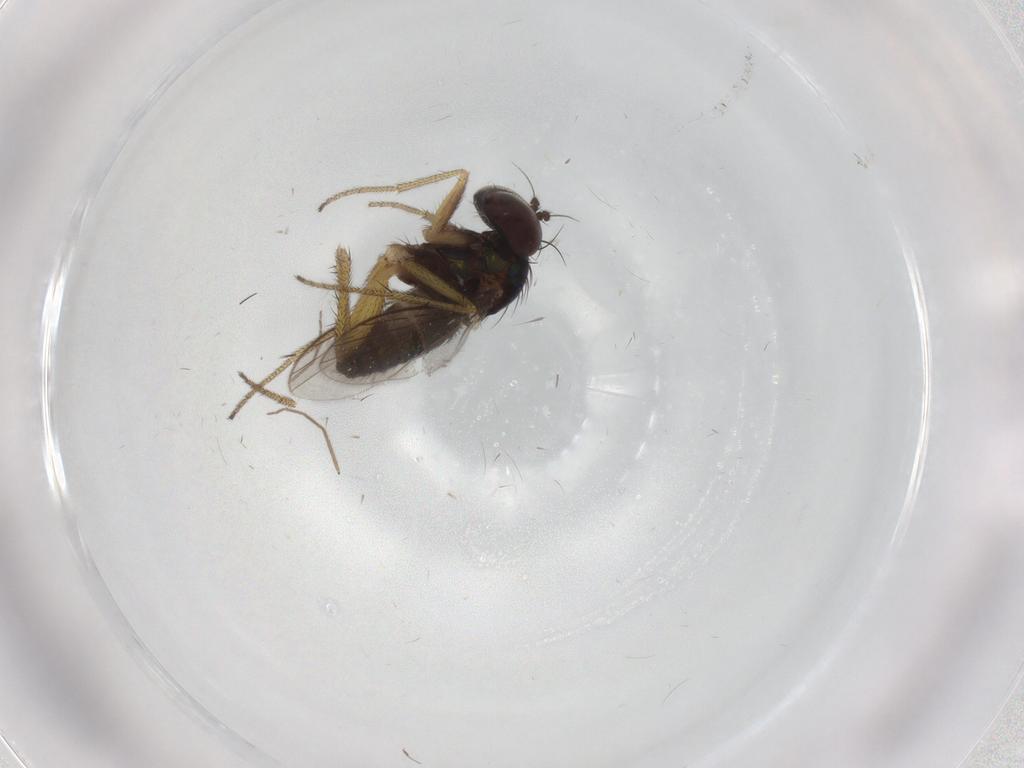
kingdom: Animalia
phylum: Arthropoda
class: Insecta
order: Diptera
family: Dolichopodidae
